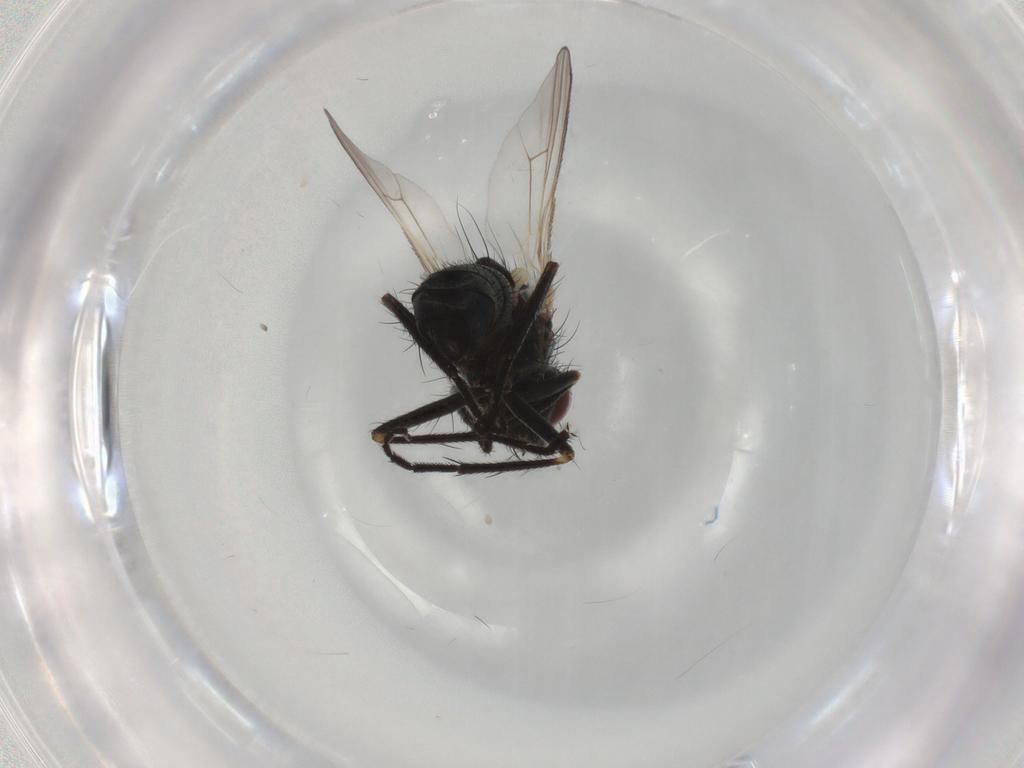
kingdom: Animalia
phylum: Arthropoda
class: Insecta
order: Diptera
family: Muscidae
